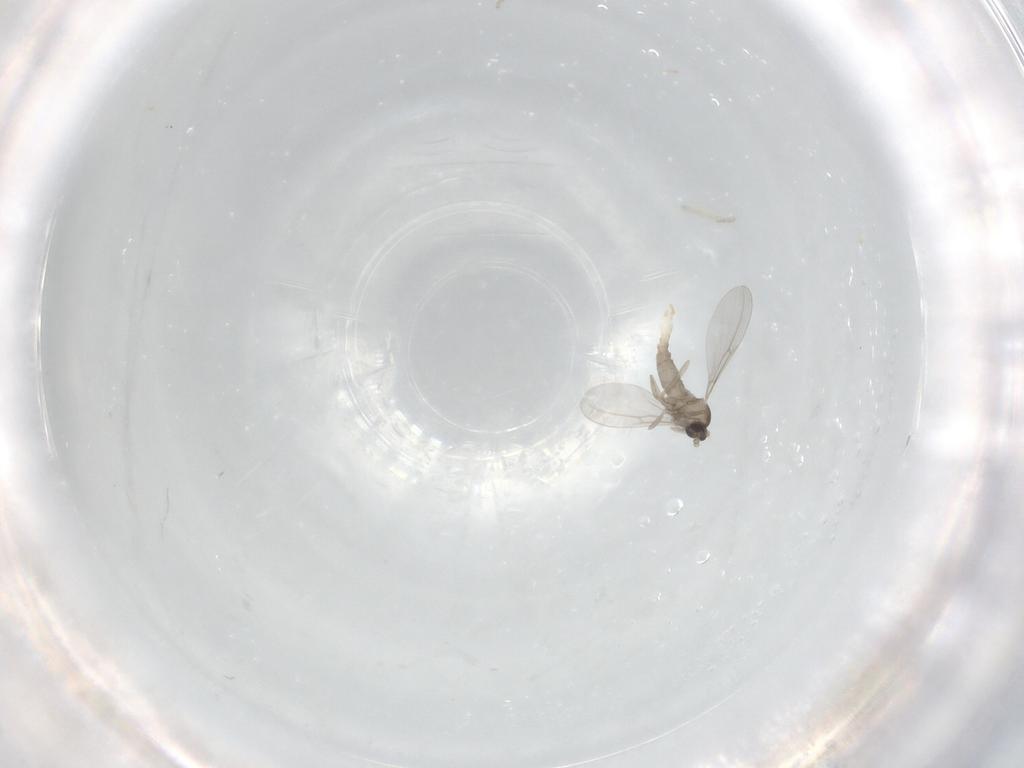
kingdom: Animalia
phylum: Arthropoda
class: Insecta
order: Diptera
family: Cecidomyiidae
